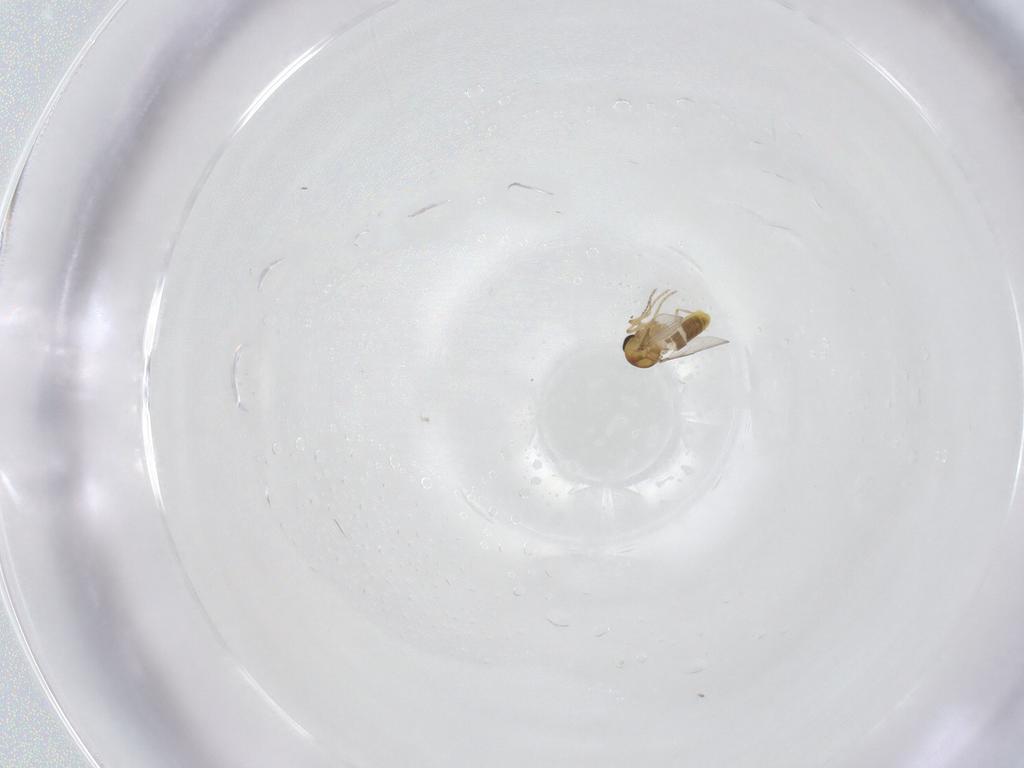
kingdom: Animalia
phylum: Arthropoda
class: Insecta
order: Diptera
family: Ceratopogonidae
